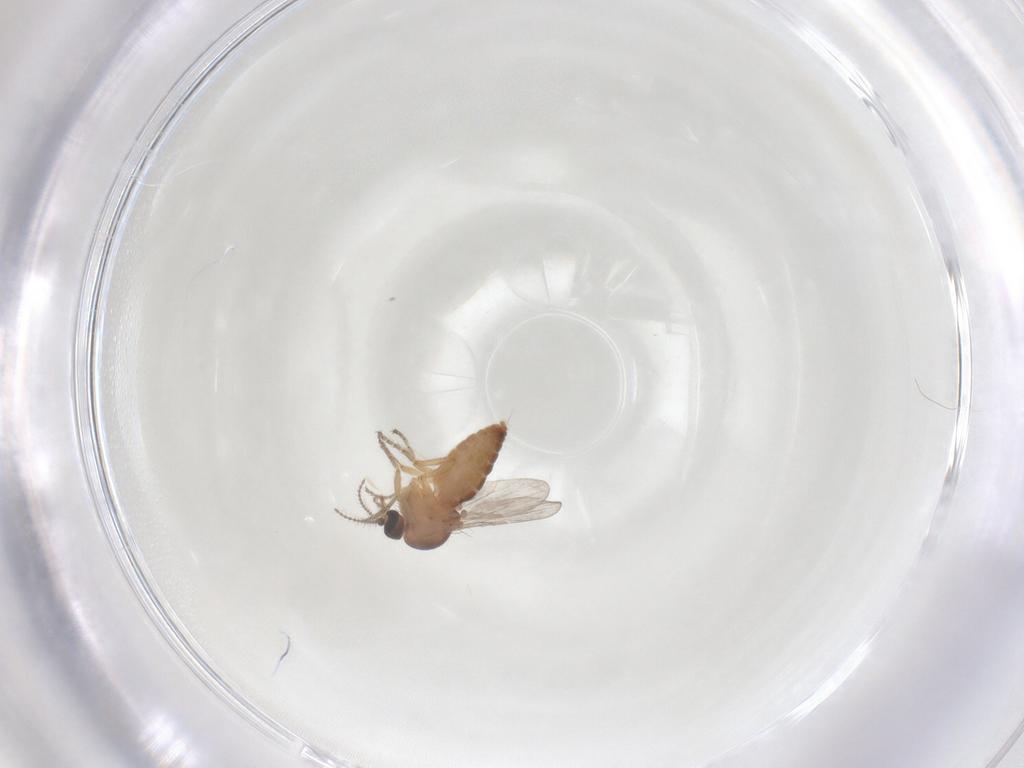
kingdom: Animalia
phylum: Arthropoda
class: Insecta
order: Diptera
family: Ceratopogonidae
